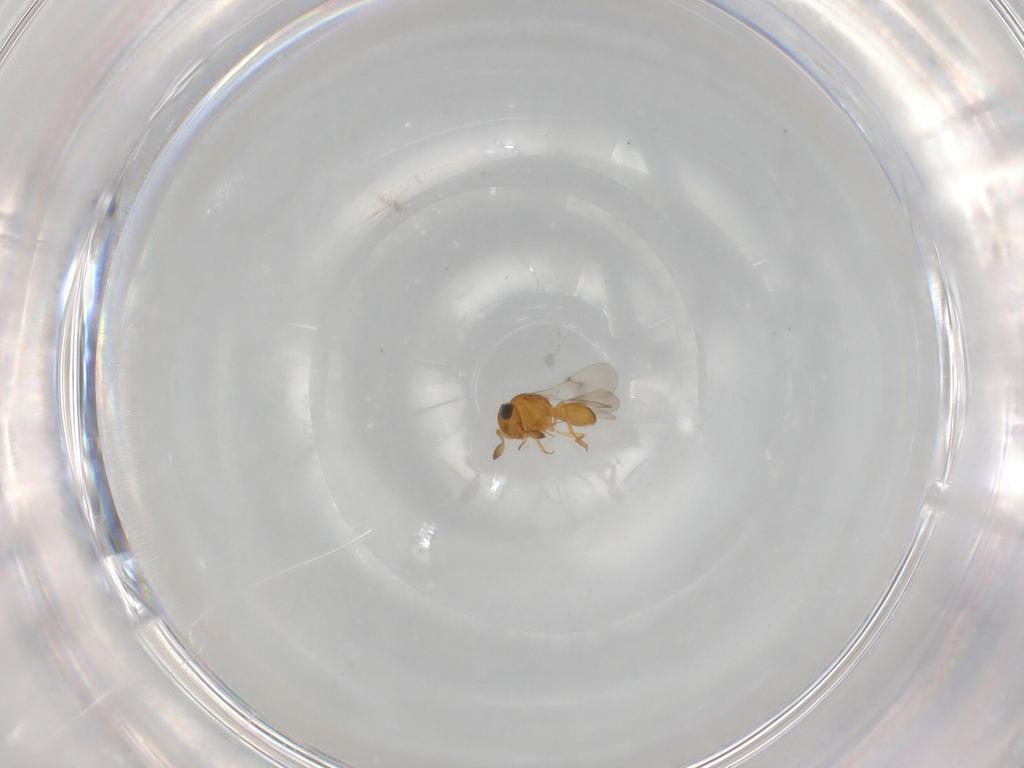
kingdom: Animalia
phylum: Arthropoda
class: Insecta
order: Hymenoptera
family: Scelionidae
